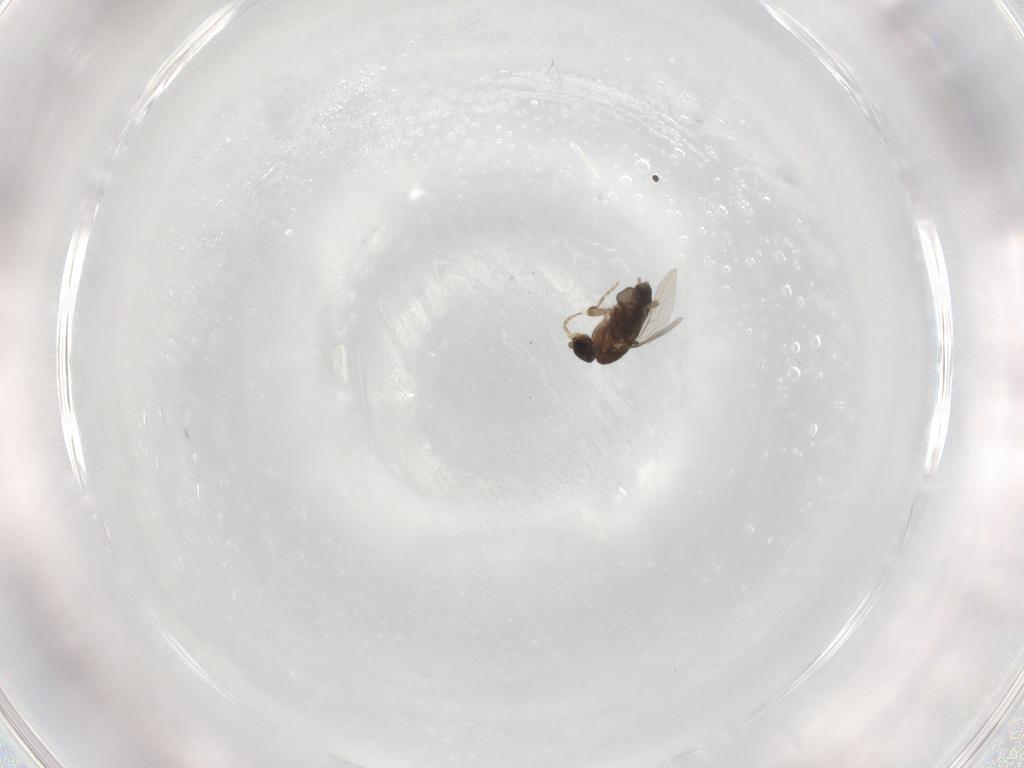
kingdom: Animalia
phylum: Arthropoda
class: Insecta
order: Diptera
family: Phoridae
